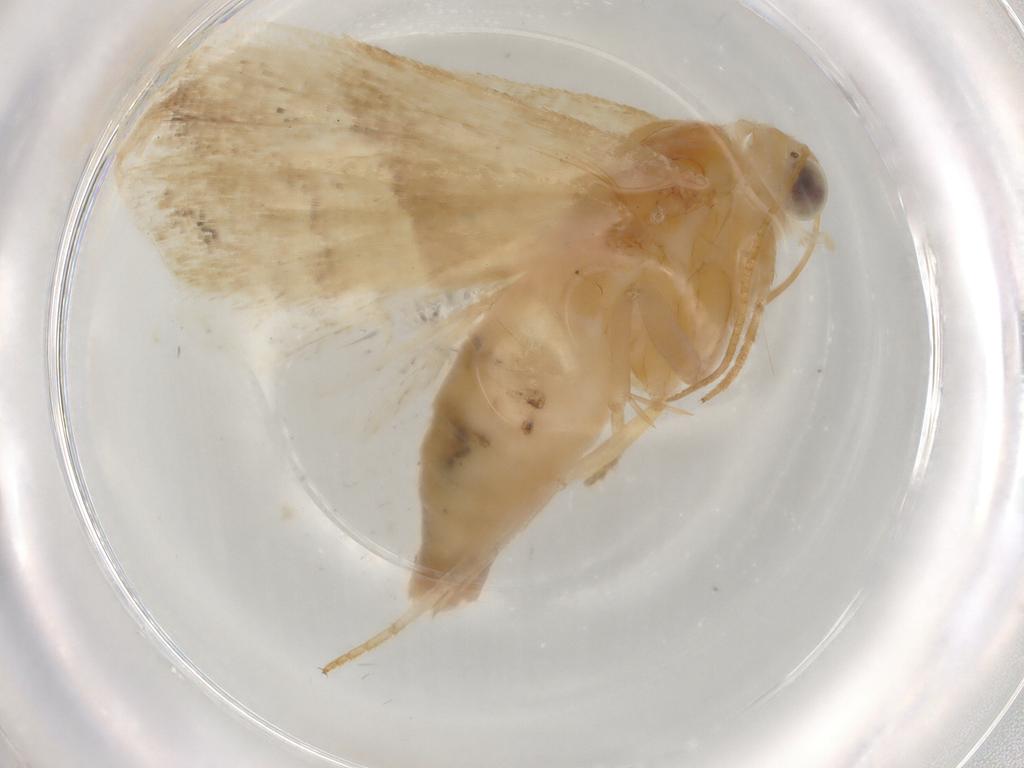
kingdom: Animalia
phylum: Arthropoda
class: Insecta
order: Lepidoptera
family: Noctuidae
